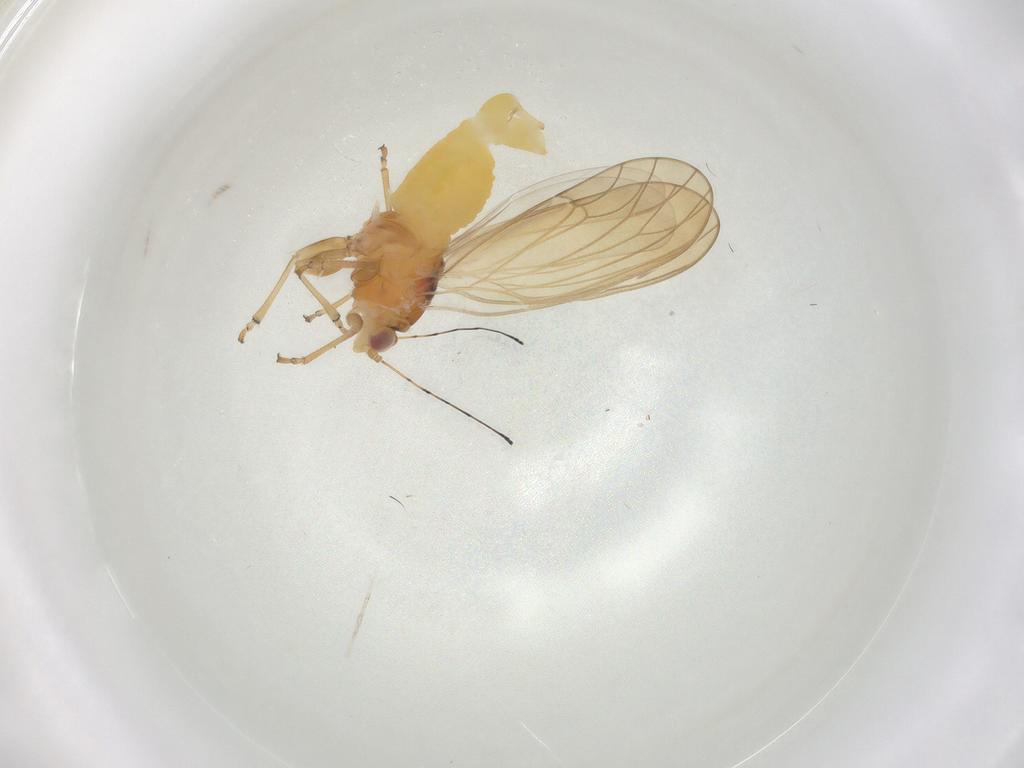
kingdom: Animalia
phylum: Arthropoda
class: Insecta
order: Hemiptera
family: Psylloidea_incertae_sedis
